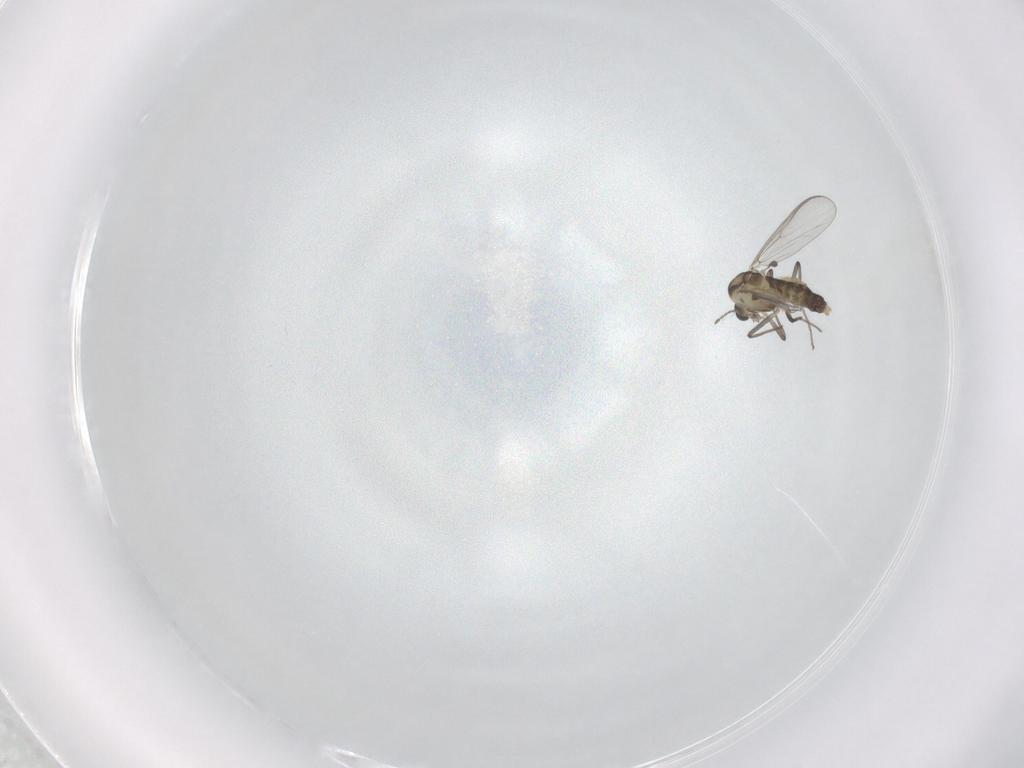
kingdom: Animalia
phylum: Arthropoda
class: Insecta
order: Diptera
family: Chironomidae
